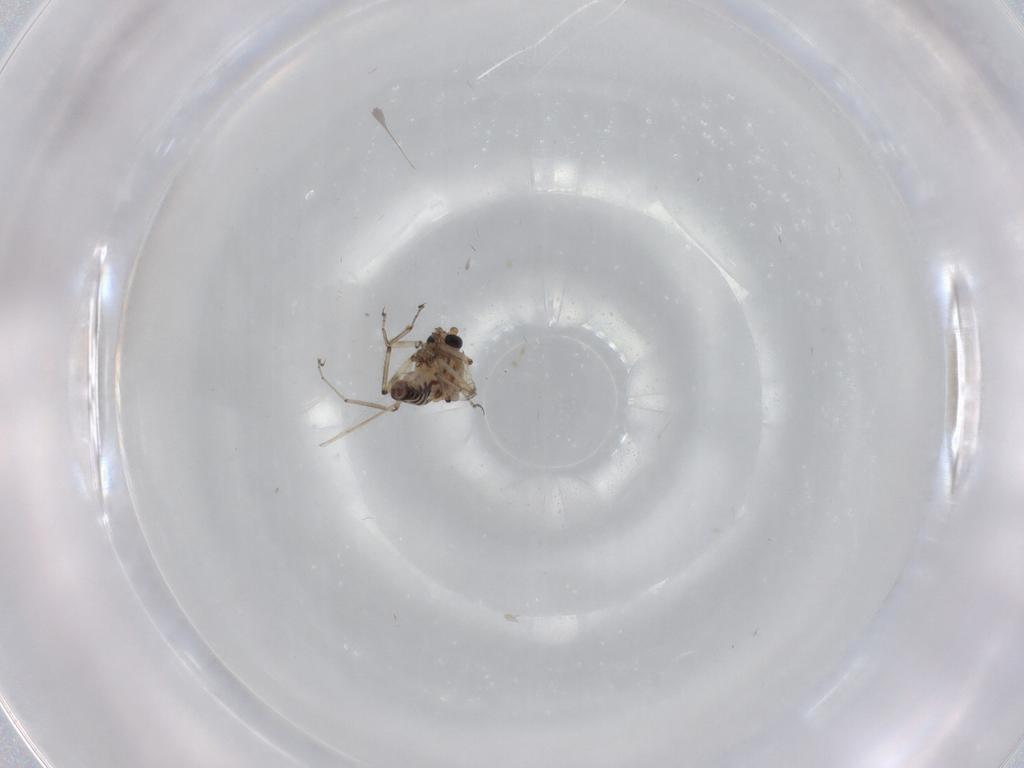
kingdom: Animalia
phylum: Arthropoda
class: Insecta
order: Diptera
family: Ceratopogonidae
